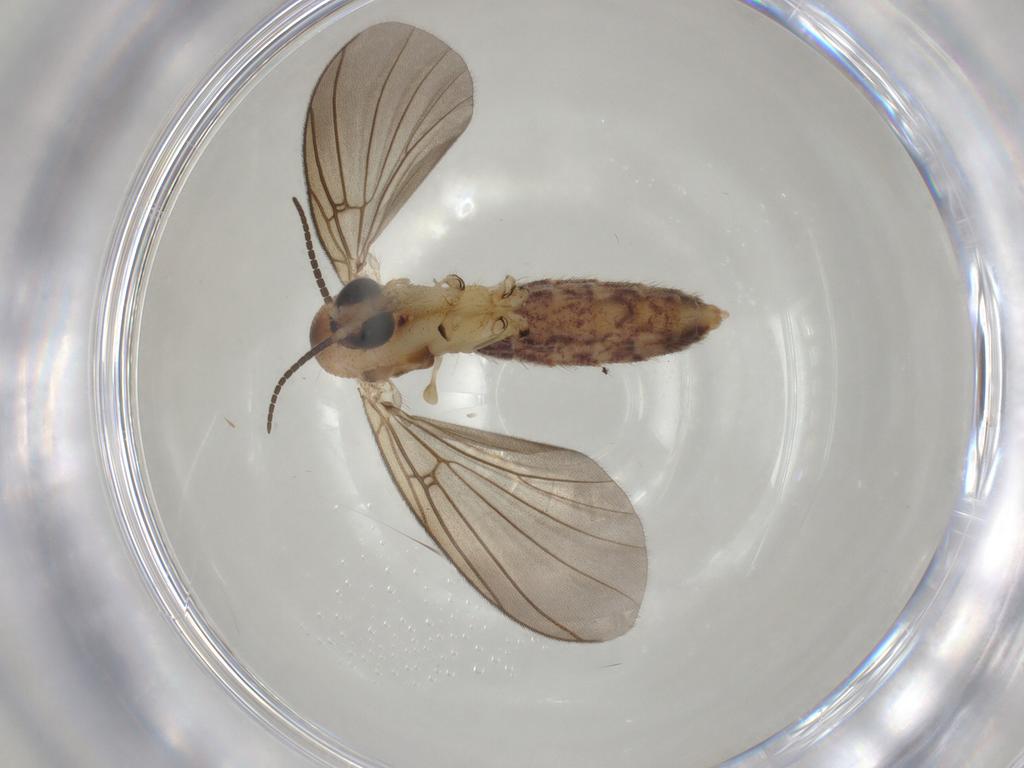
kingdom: Animalia
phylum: Arthropoda
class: Insecta
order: Diptera
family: Mycetophilidae
